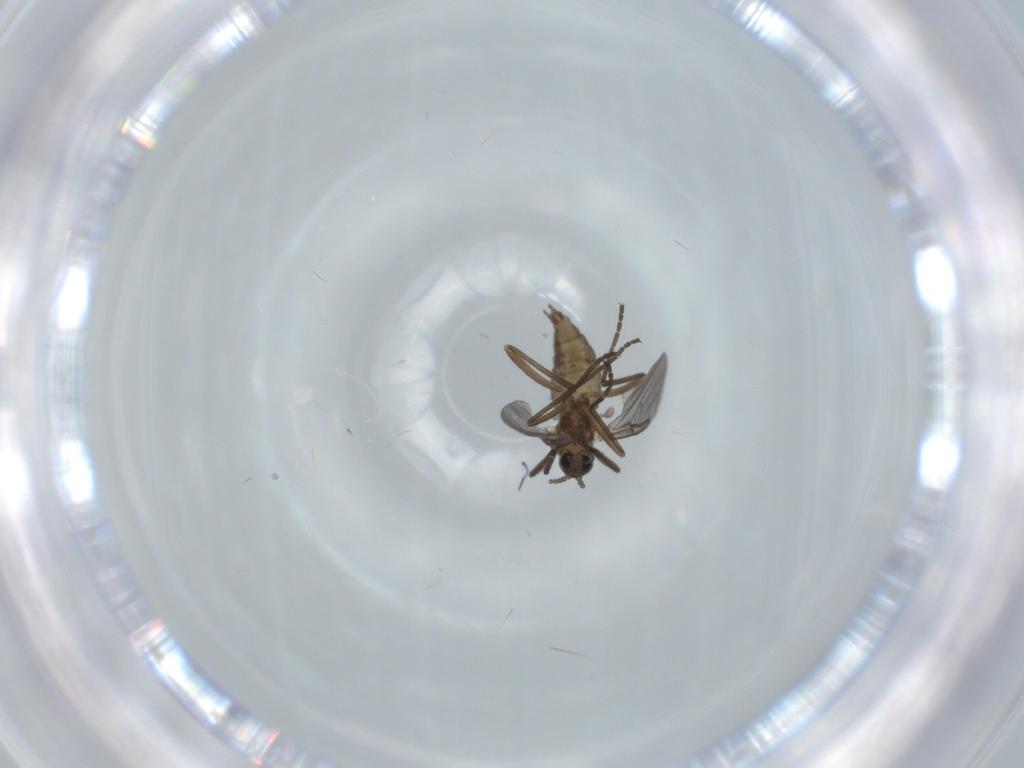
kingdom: Animalia
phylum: Arthropoda
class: Insecta
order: Diptera
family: Cecidomyiidae
